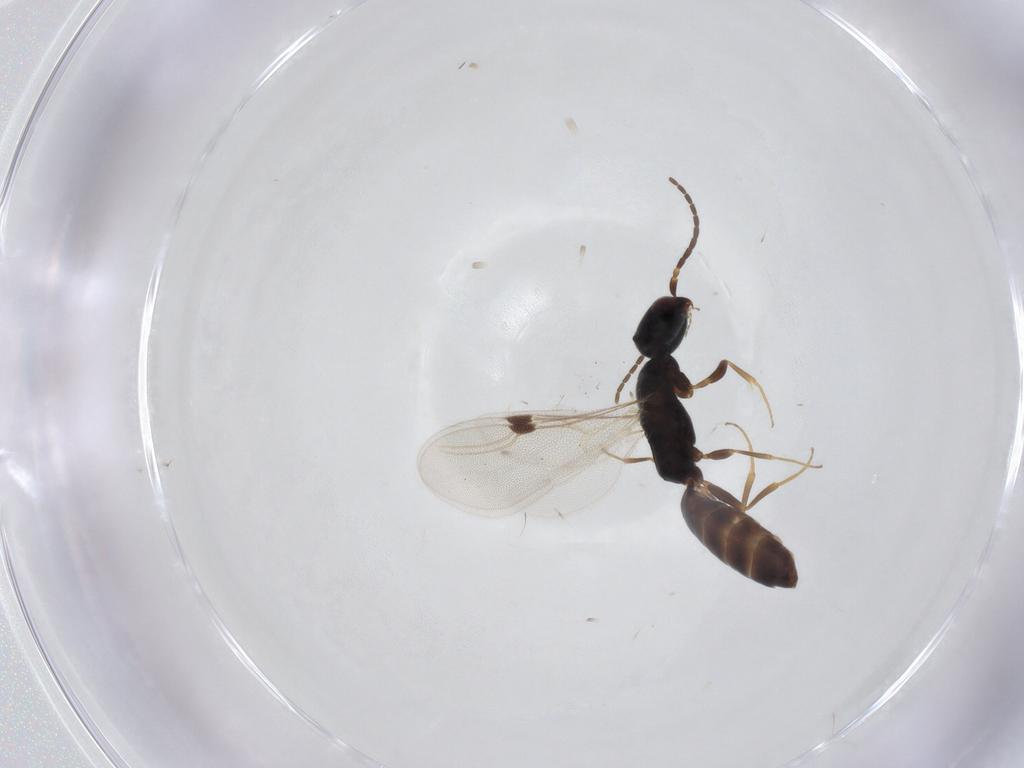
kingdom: Animalia
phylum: Arthropoda
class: Insecta
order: Hymenoptera
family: Bethylidae
